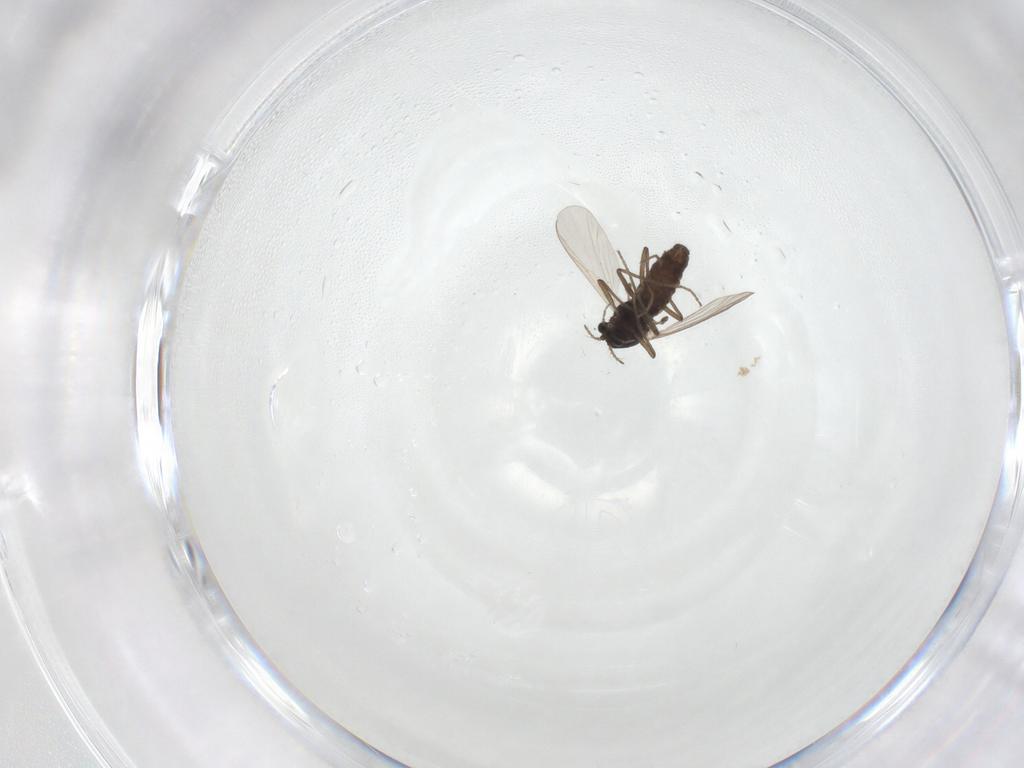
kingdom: Animalia
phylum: Arthropoda
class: Insecta
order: Diptera
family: Chironomidae
